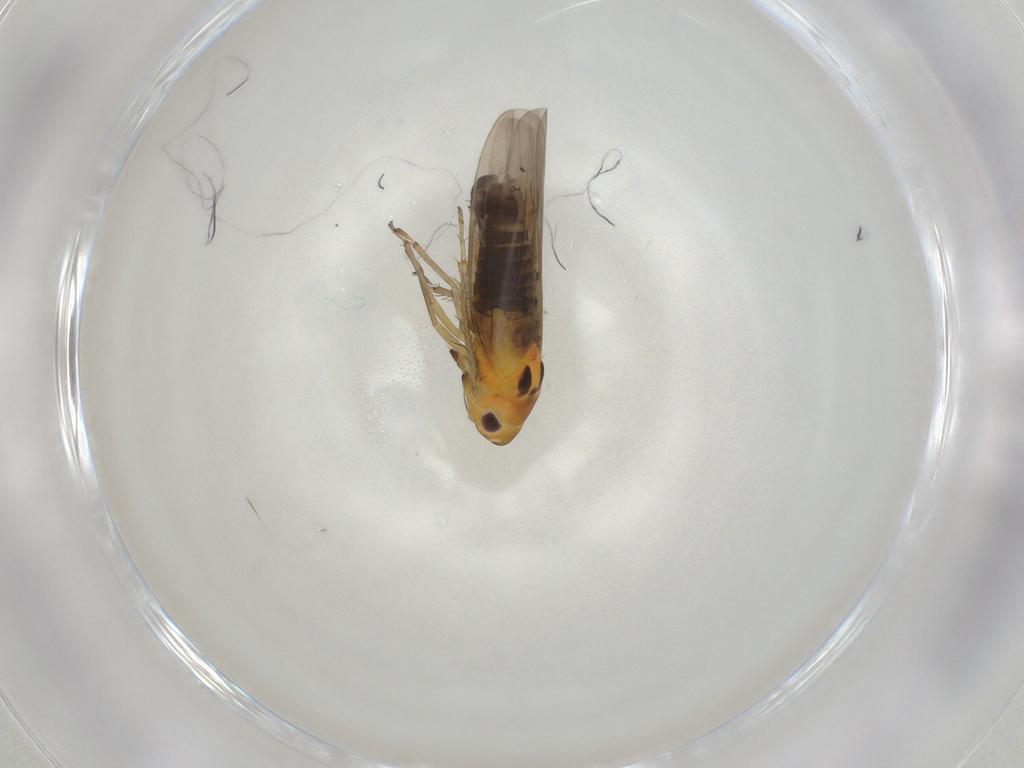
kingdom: Animalia
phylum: Arthropoda
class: Insecta
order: Hemiptera
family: Cicadellidae
